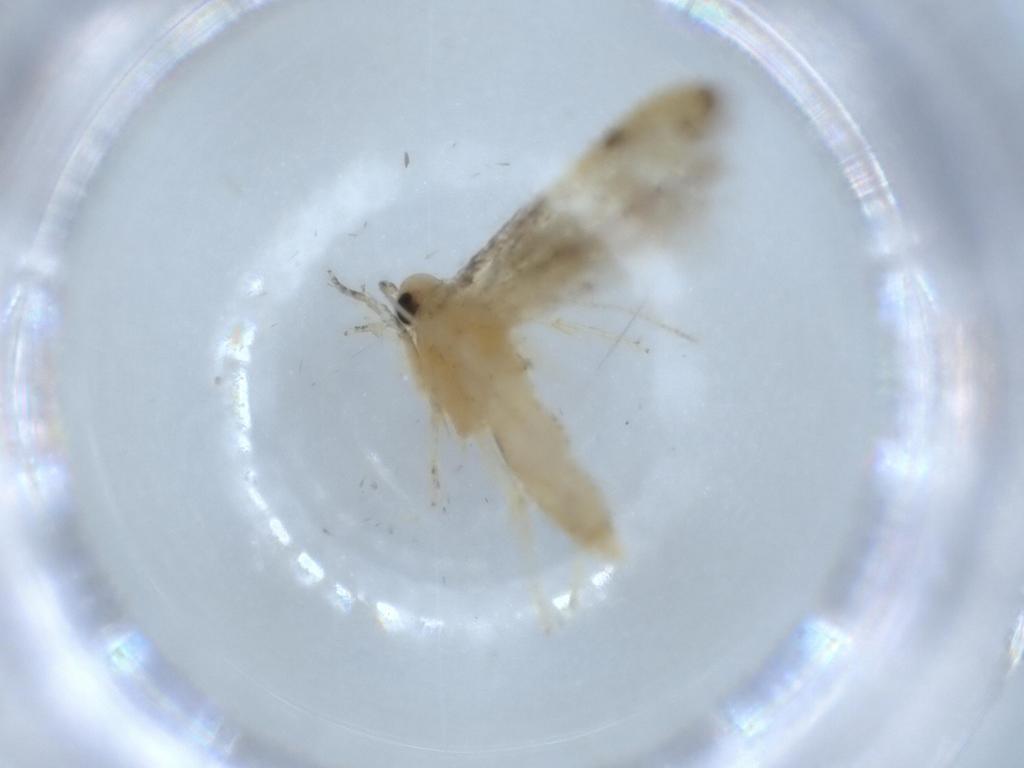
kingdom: Animalia
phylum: Arthropoda
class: Insecta
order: Lepidoptera
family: Autostichidae
